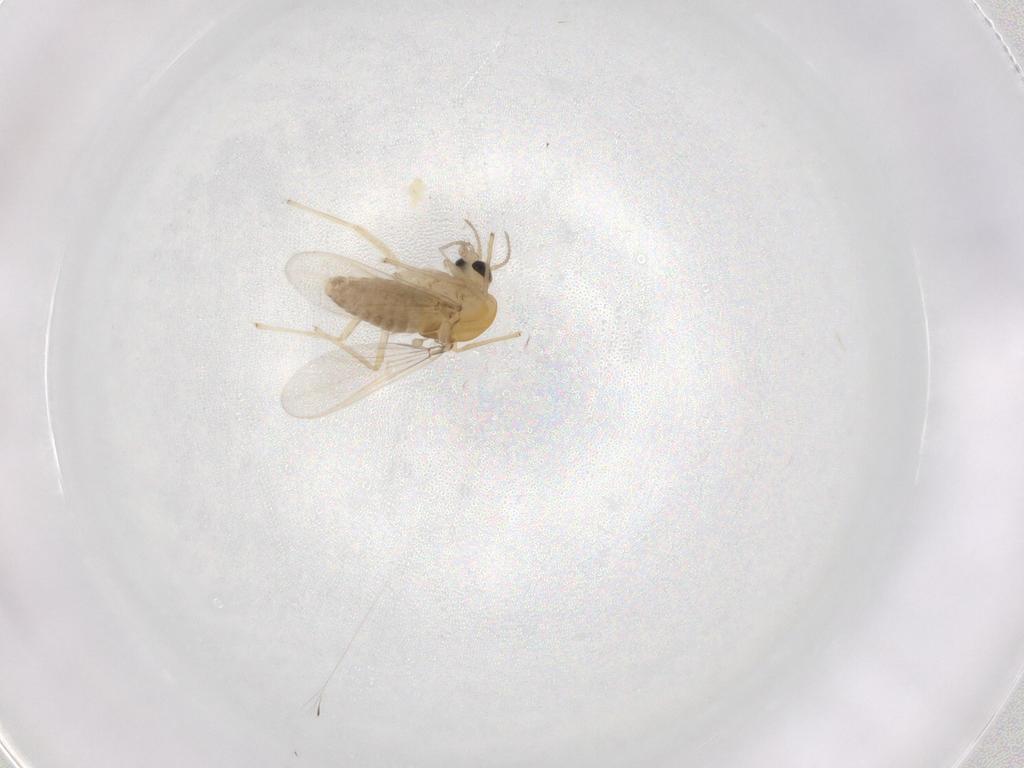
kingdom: Animalia
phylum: Arthropoda
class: Insecta
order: Diptera
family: Chironomidae
